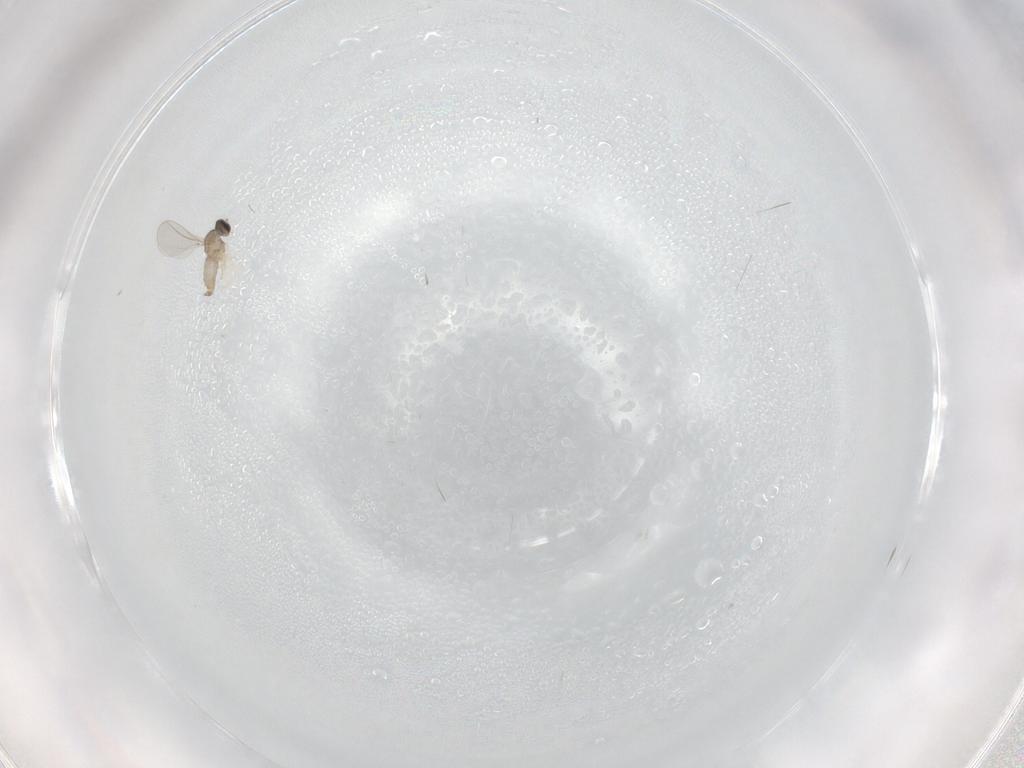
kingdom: Animalia
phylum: Arthropoda
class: Insecta
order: Diptera
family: Cecidomyiidae
